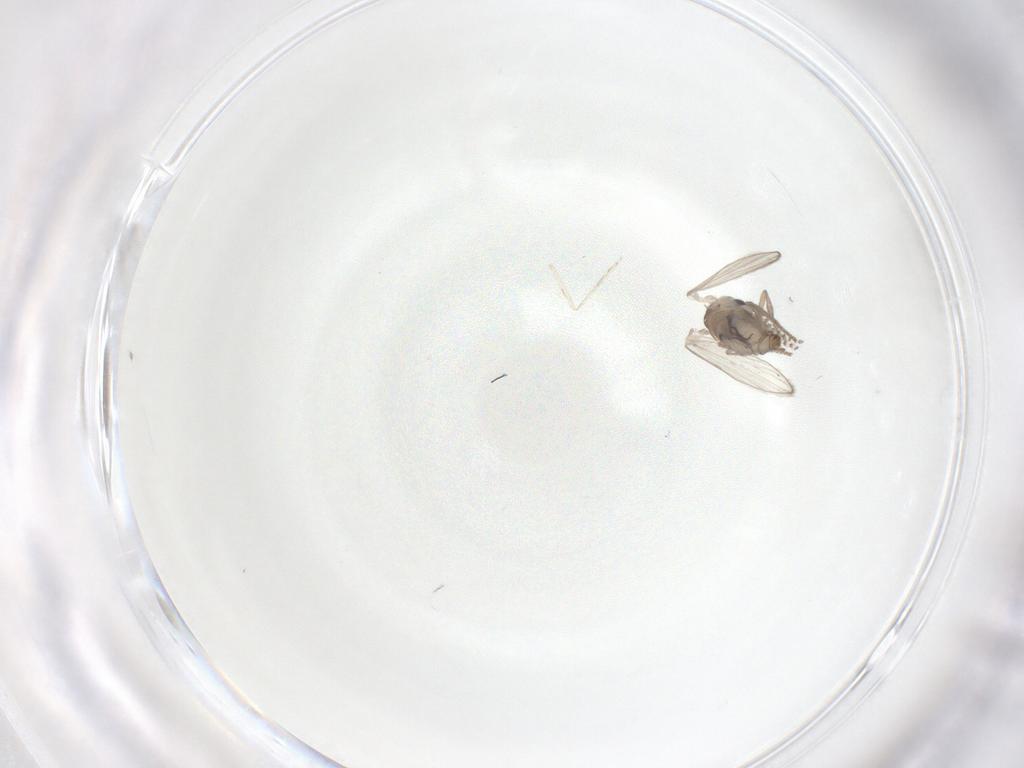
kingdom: Animalia
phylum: Arthropoda
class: Insecta
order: Diptera
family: Psychodidae
